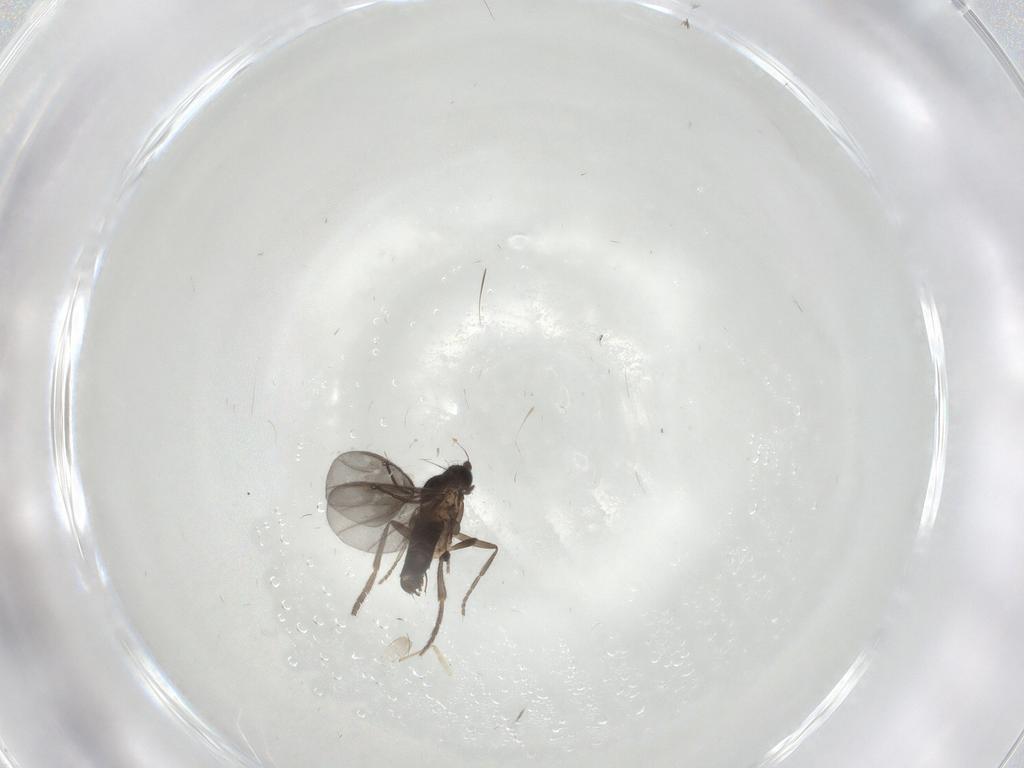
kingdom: Animalia
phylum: Arthropoda
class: Insecta
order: Diptera
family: Phoridae
